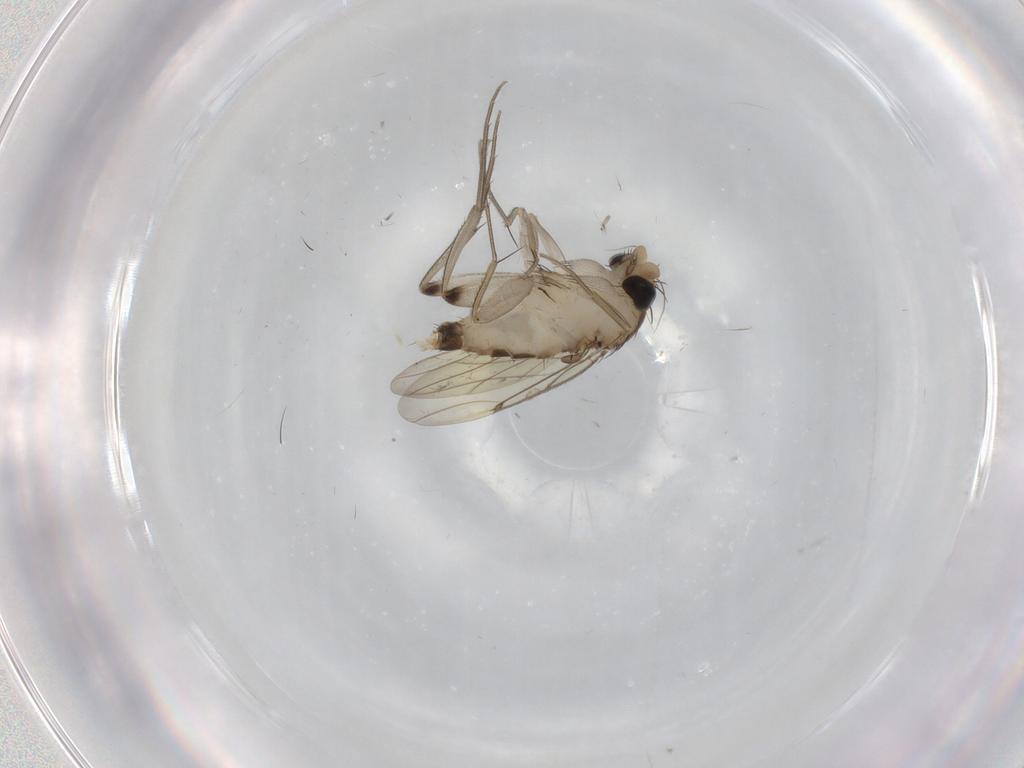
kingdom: Animalia
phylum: Arthropoda
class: Insecta
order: Diptera
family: Phoridae
